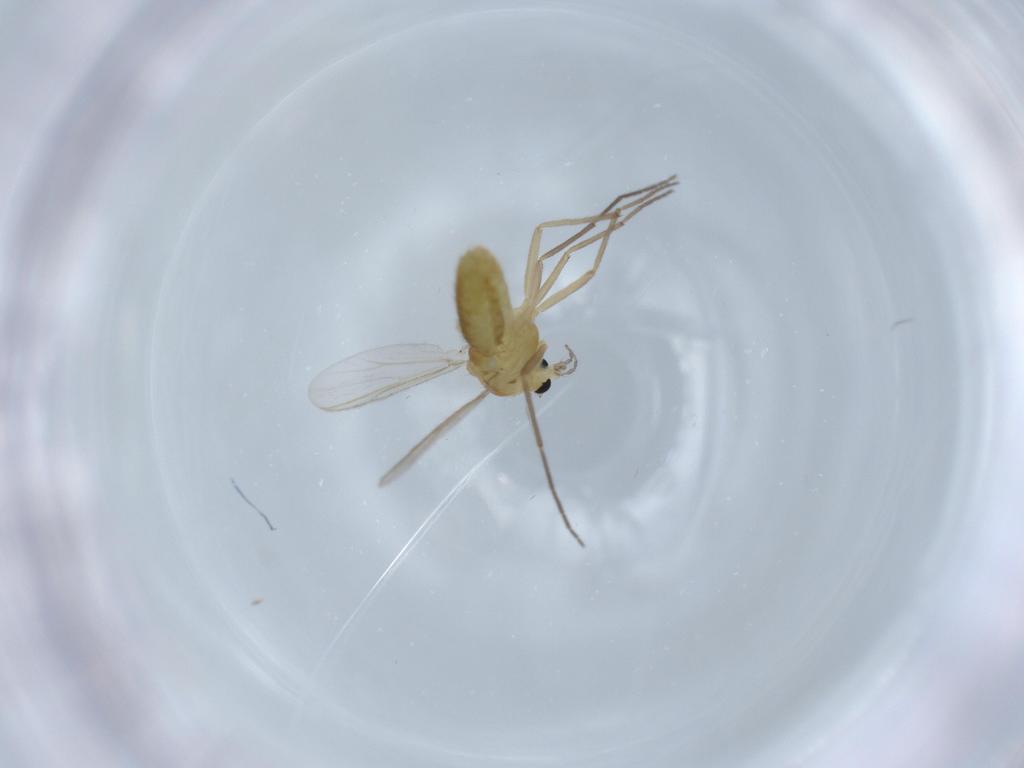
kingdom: Animalia
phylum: Arthropoda
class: Insecta
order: Diptera
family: Chironomidae
